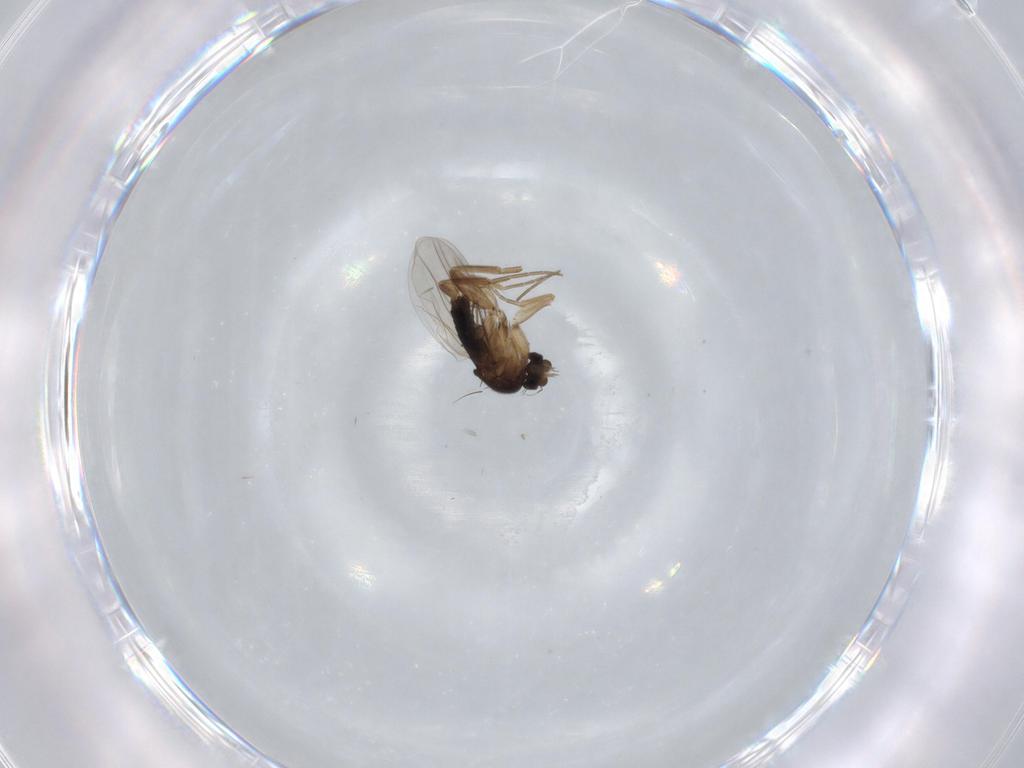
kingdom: Animalia
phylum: Arthropoda
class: Insecta
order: Diptera
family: Phoridae
